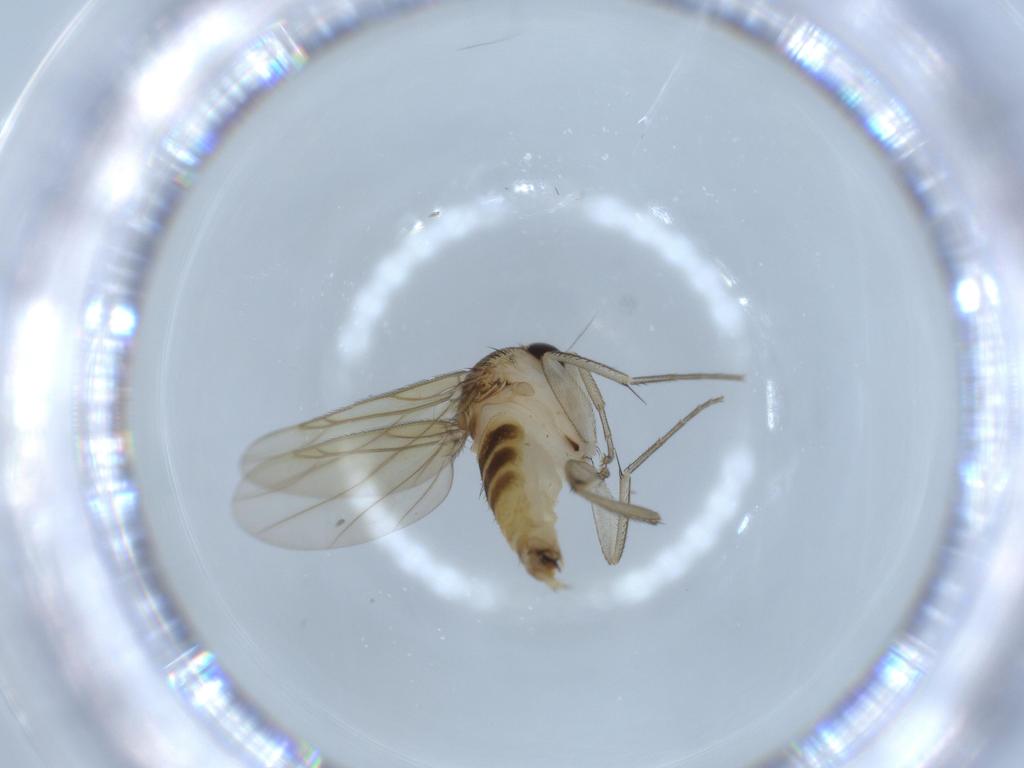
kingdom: Animalia
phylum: Arthropoda
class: Insecta
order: Diptera
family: Phoridae
